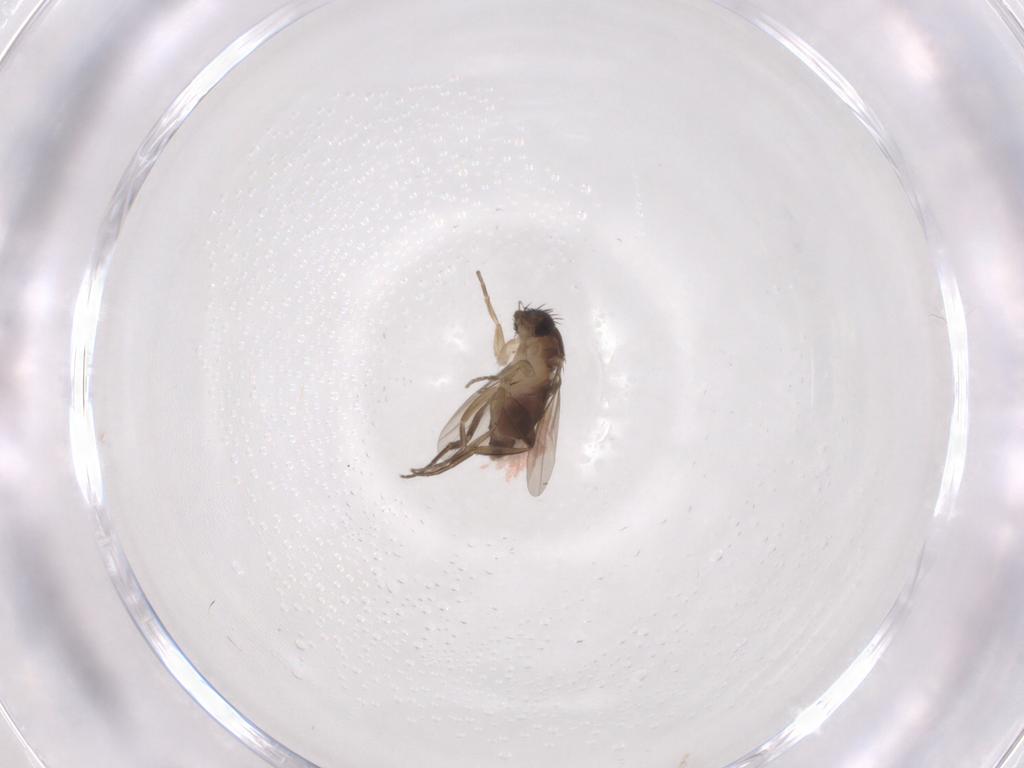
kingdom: Animalia
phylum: Arthropoda
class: Insecta
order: Diptera
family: Phoridae
